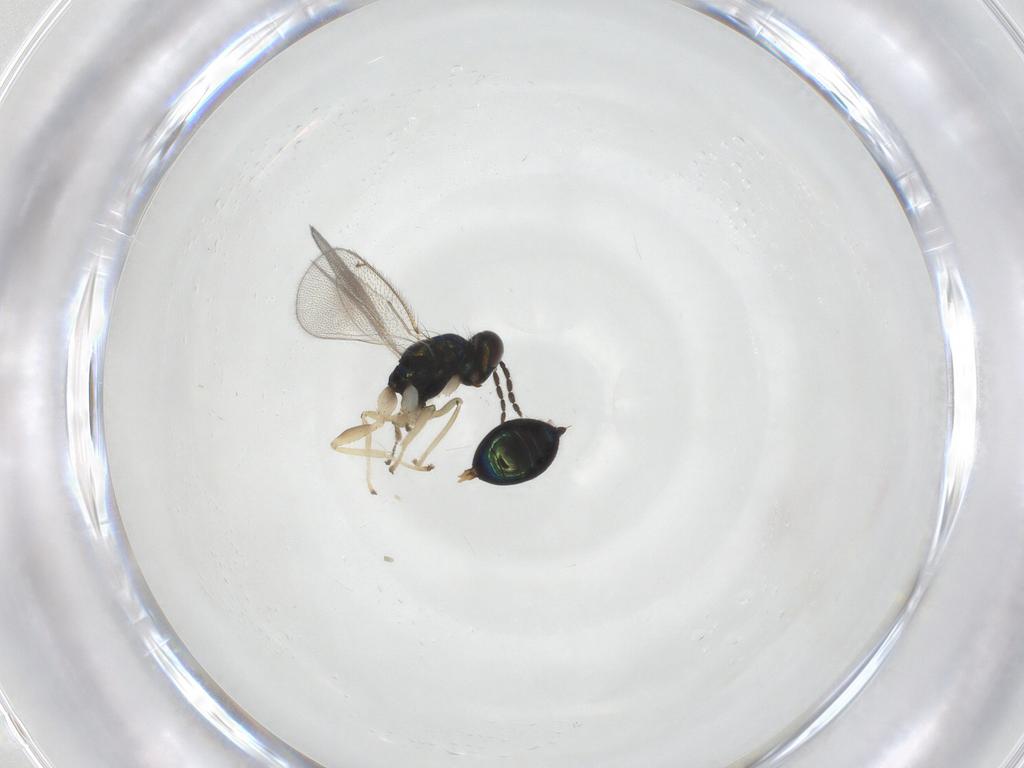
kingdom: Animalia
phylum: Arthropoda
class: Insecta
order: Hymenoptera
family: Eulophidae
